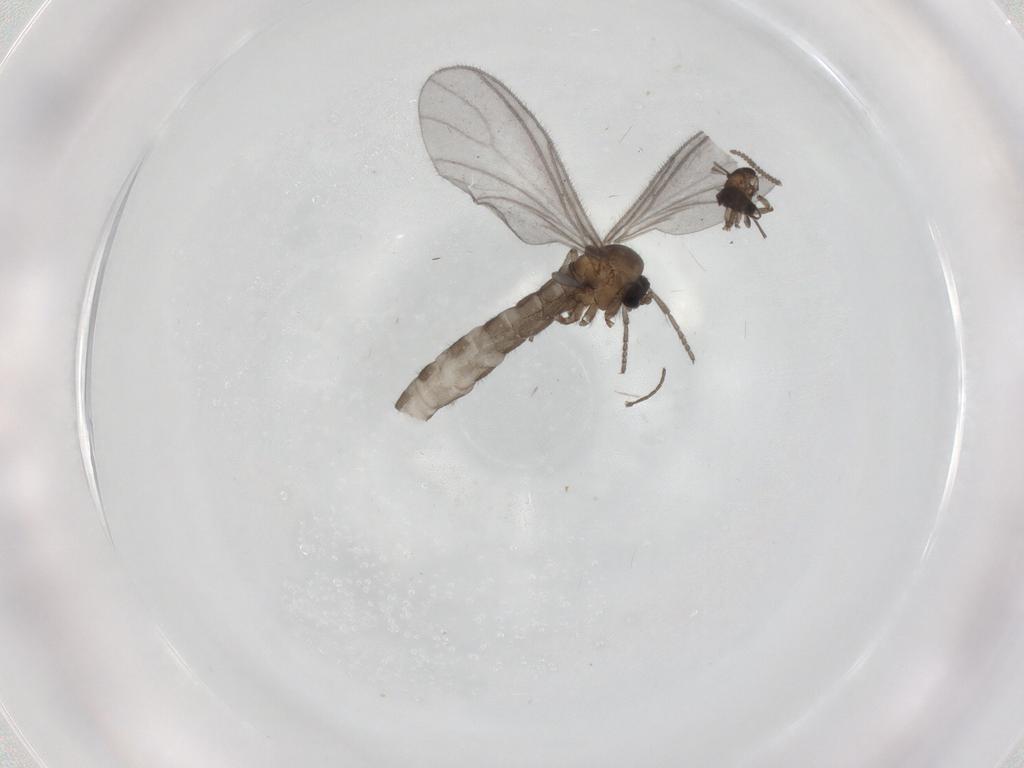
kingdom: Animalia
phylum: Arthropoda
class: Insecta
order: Diptera
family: Sciaridae
